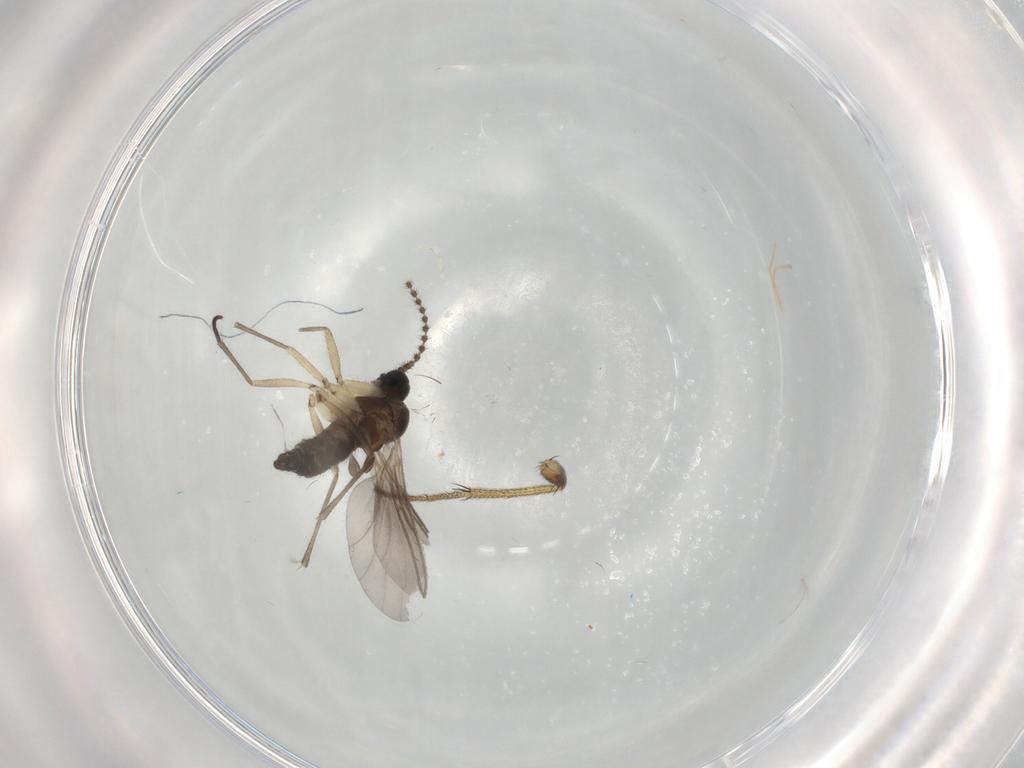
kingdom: Animalia
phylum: Arthropoda
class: Insecta
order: Diptera
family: Sciaridae
